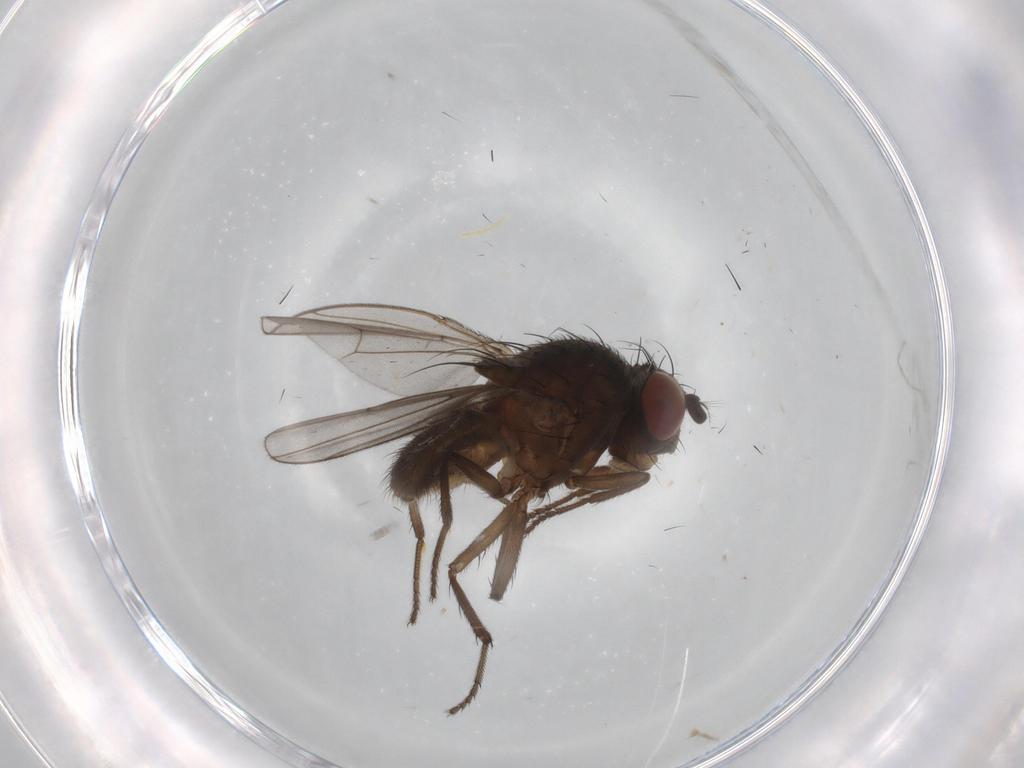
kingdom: Animalia
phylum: Arthropoda
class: Insecta
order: Diptera
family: Ephydridae
